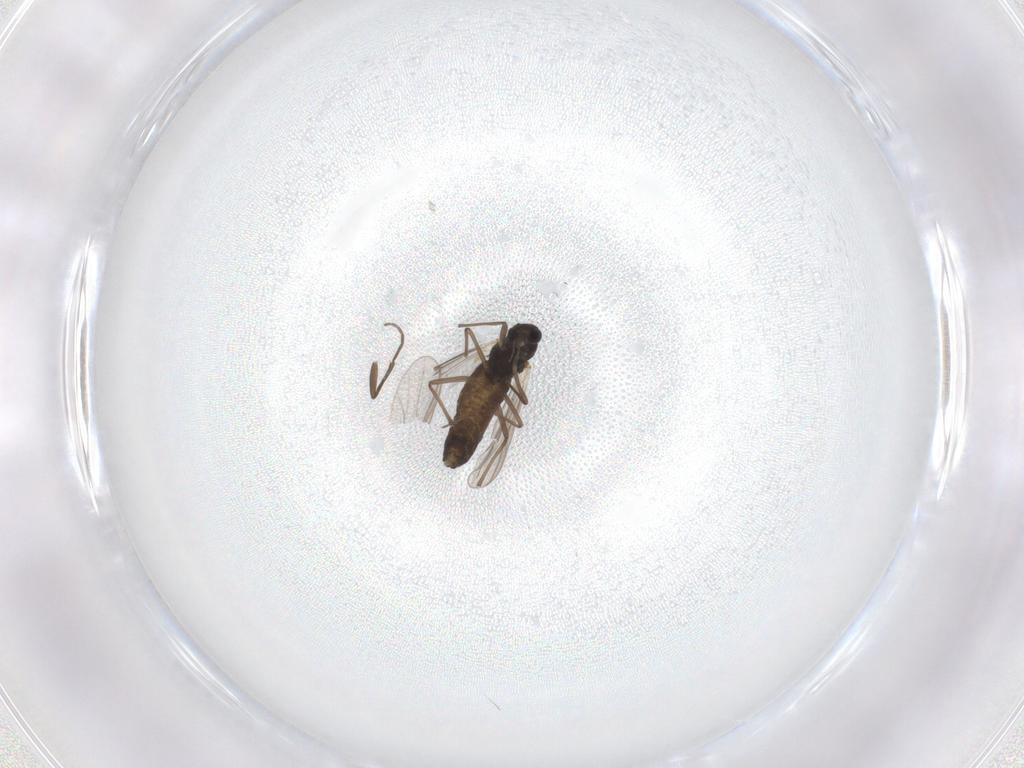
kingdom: Animalia
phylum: Arthropoda
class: Insecta
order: Diptera
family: Chironomidae
